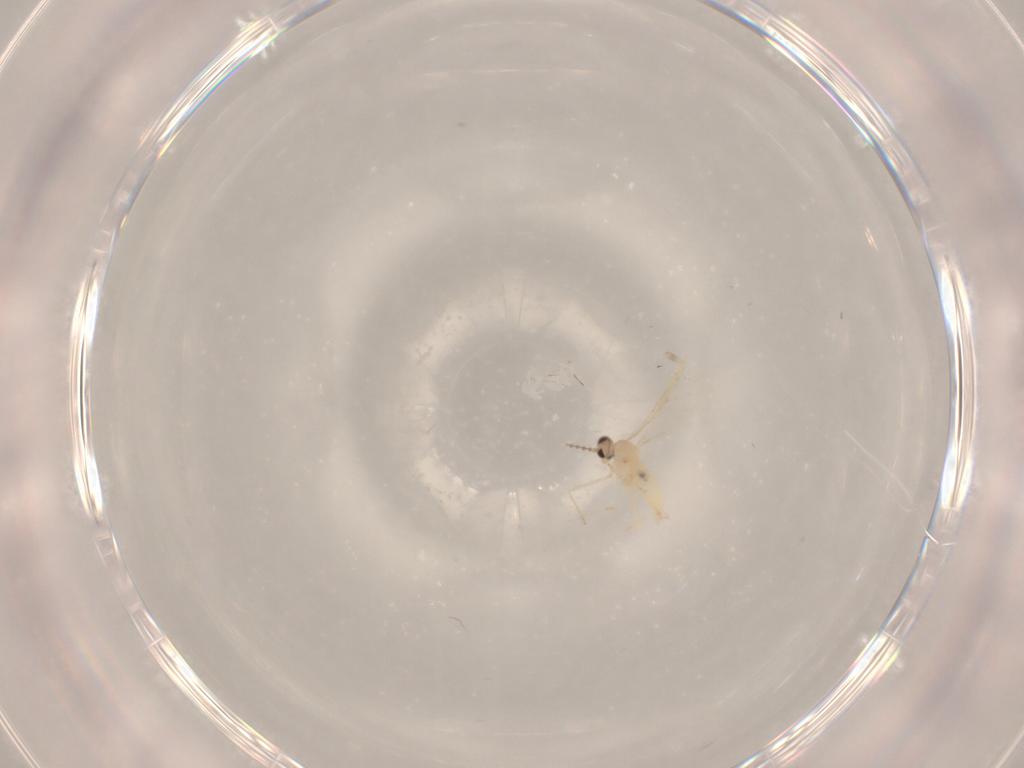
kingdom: Animalia
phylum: Arthropoda
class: Insecta
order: Diptera
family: Cecidomyiidae
